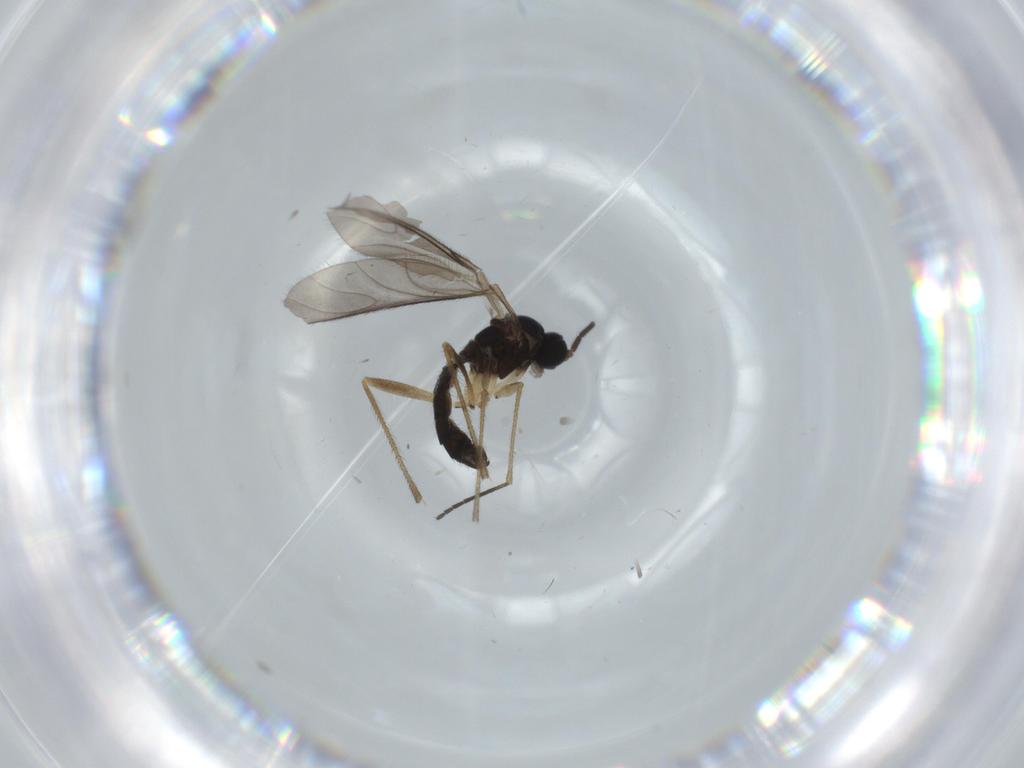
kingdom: Animalia
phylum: Arthropoda
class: Insecta
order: Diptera
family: Sciaridae
